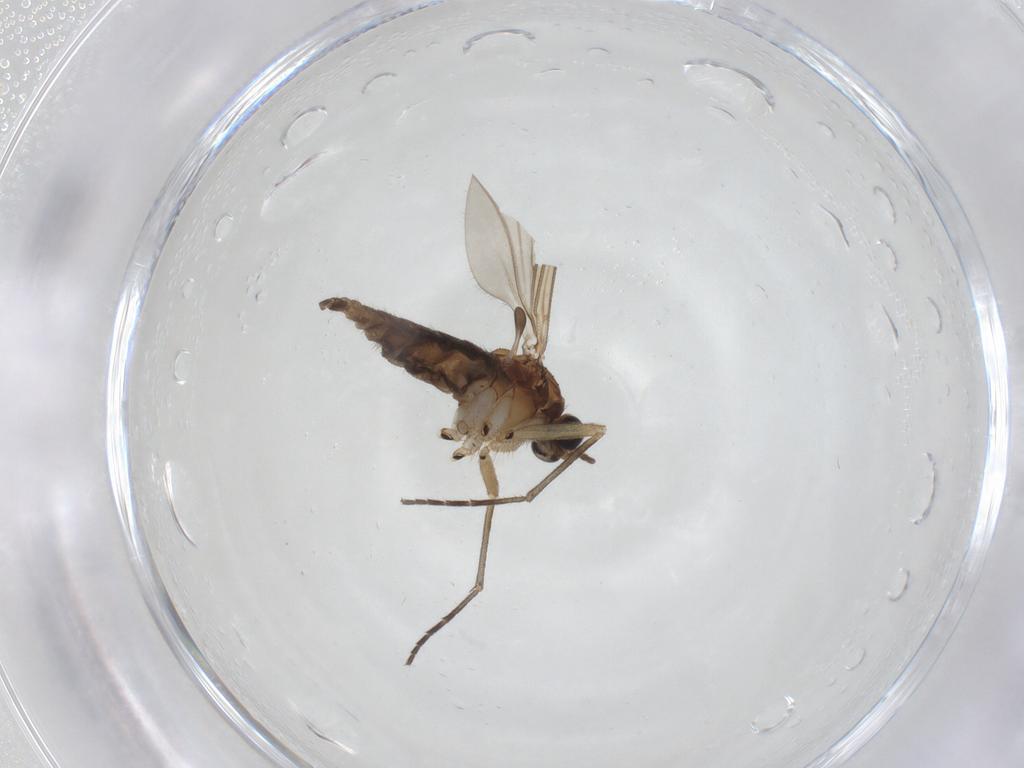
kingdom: Animalia
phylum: Arthropoda
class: Insecta
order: Diptera
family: Sciaridae
